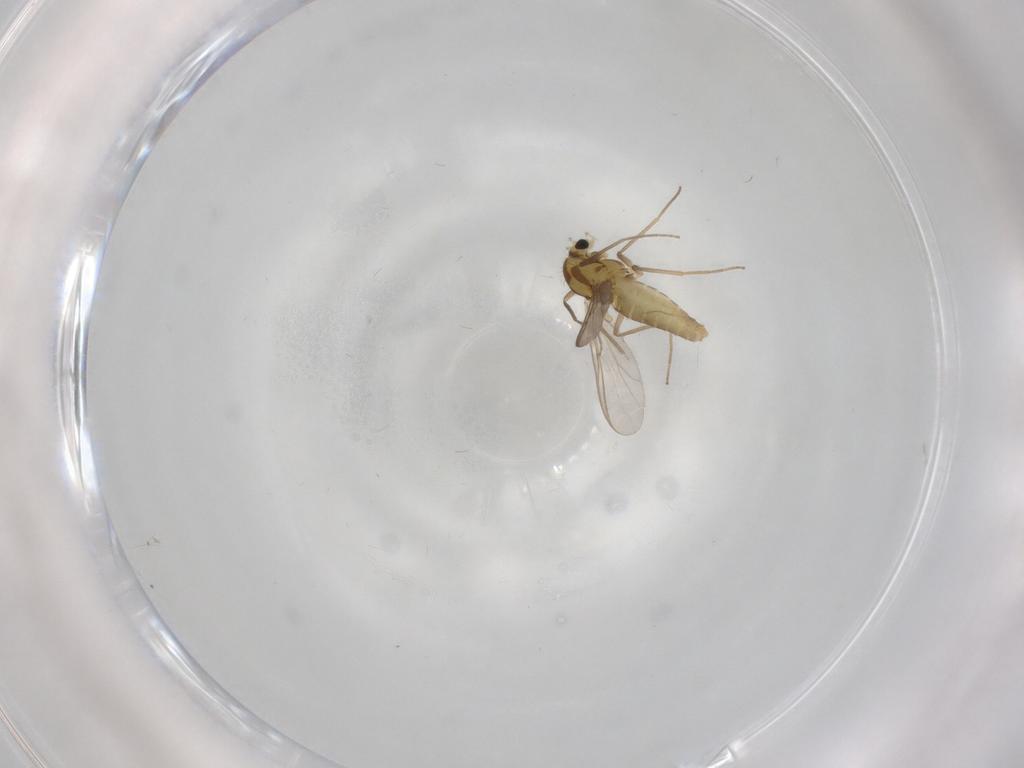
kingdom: Animalia
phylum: Arthropoda
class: Insecta
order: Diptera
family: Chironomidae
